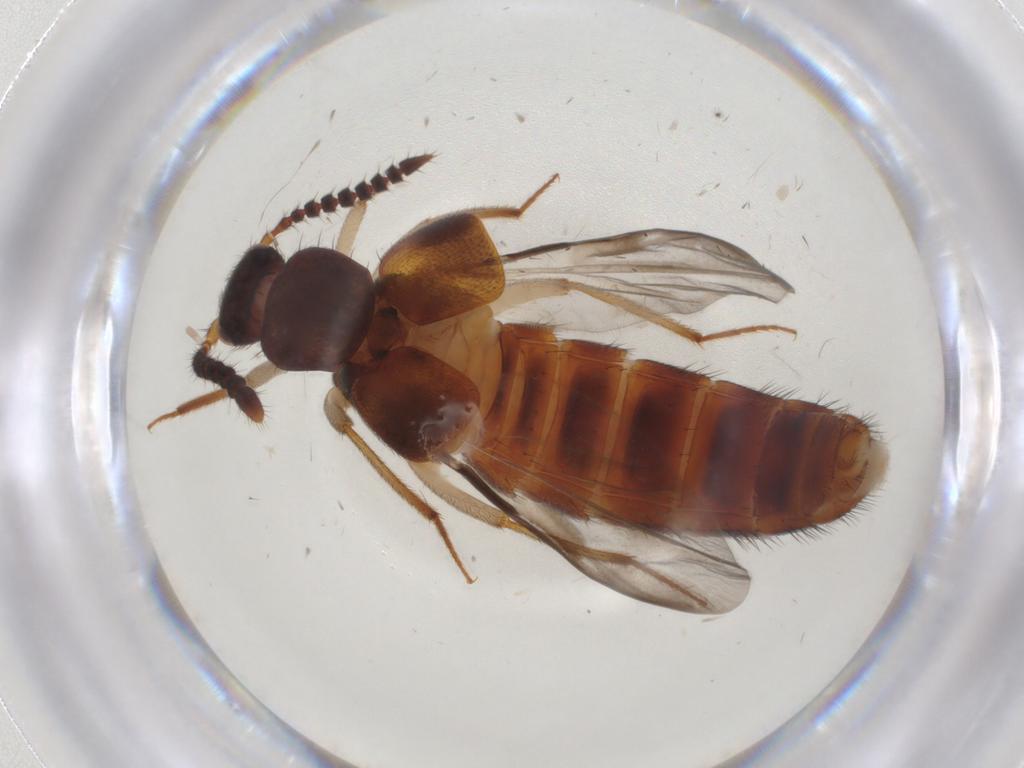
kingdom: Animalia
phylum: Arthropoda
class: Insecta
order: Coleoptera
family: Staphylinidae
